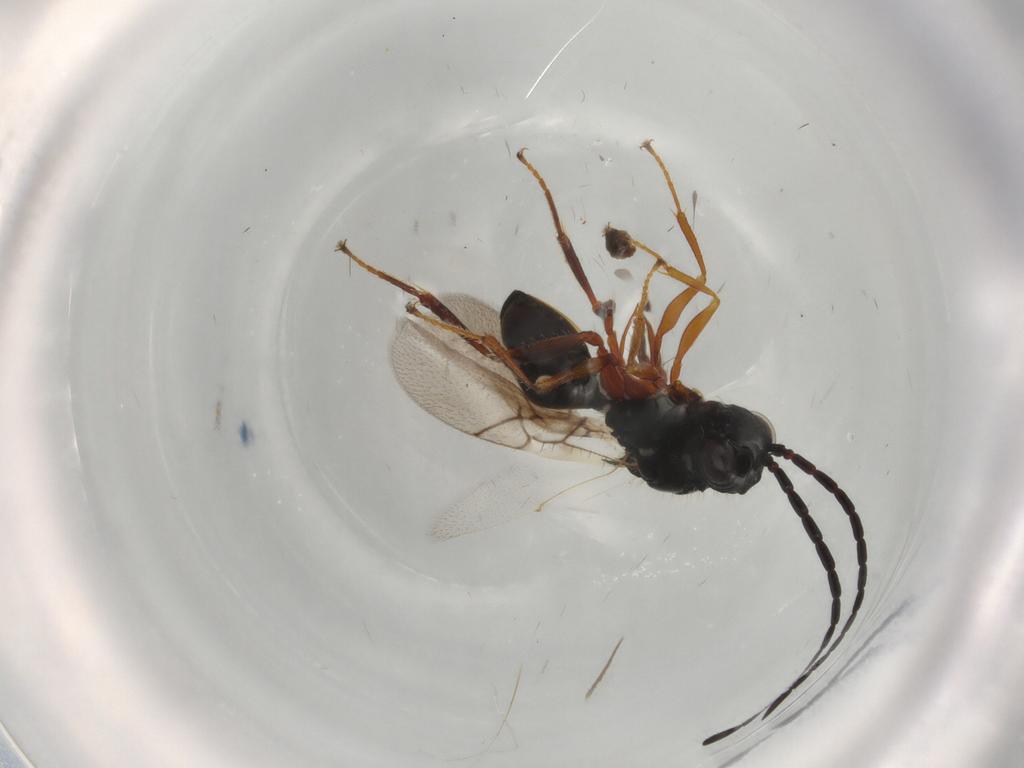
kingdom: Animalia
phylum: Arthropoda
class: Insecta
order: Hymenoptera
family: Figitidae
